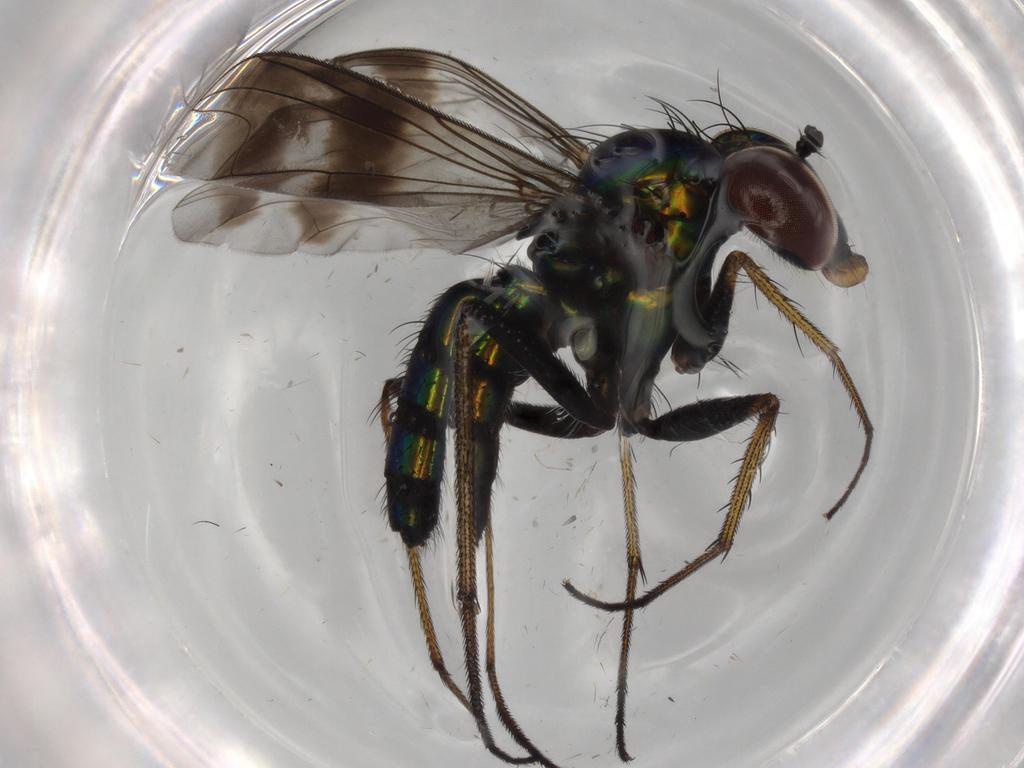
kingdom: Animalia
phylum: Arthropoda
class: Insecta
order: Diptera
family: Dolichopodidae
